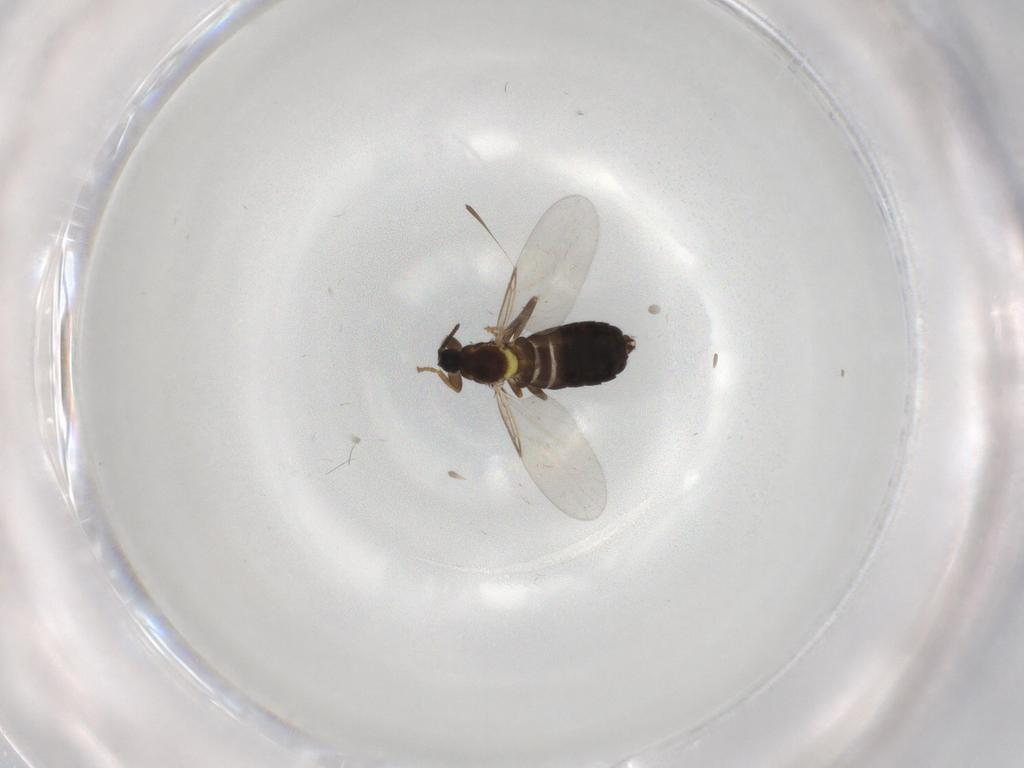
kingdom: Animalia
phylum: Arthropoda
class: Insecta
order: Diptera
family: Scatopsidae
